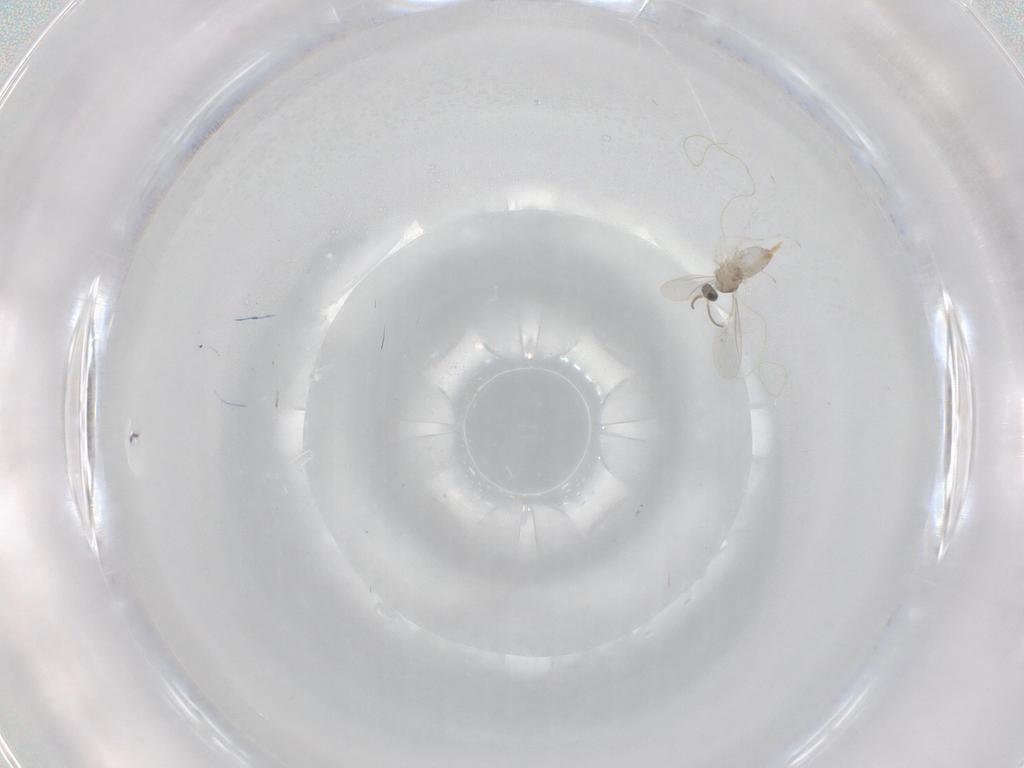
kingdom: Animalia
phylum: Arthropoda
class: Insecta
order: Diptera
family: Cecidomyiidae
